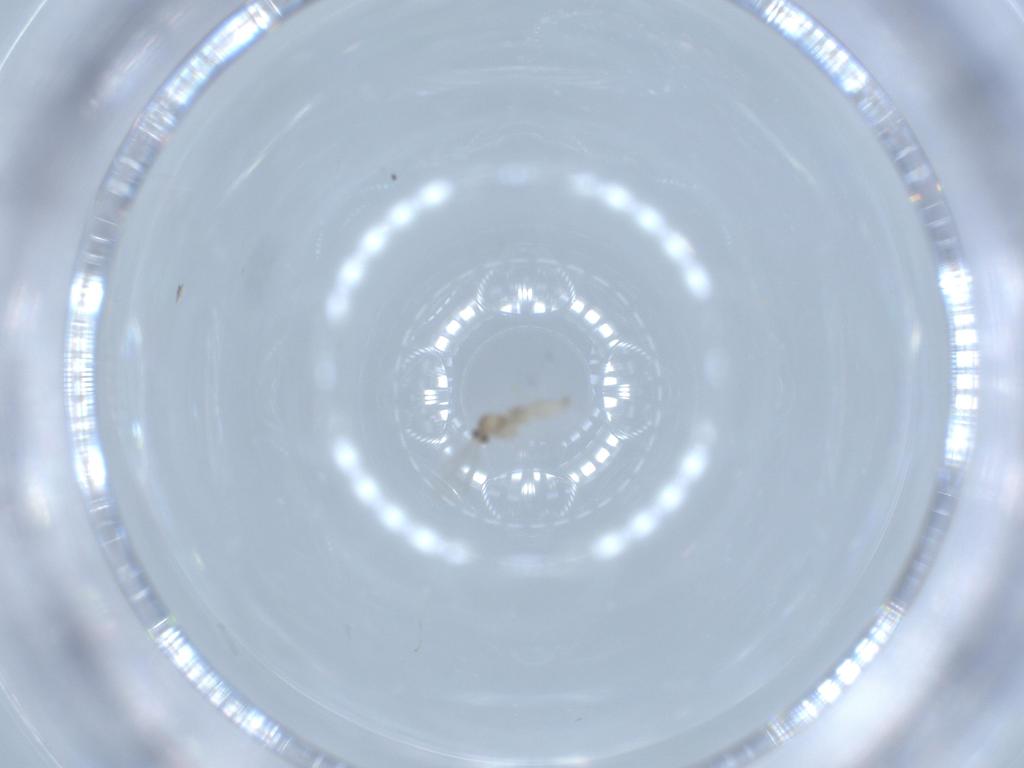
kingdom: Animalia
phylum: Arthropoda
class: Insecta
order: Diptera
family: Cecidomyiidae
